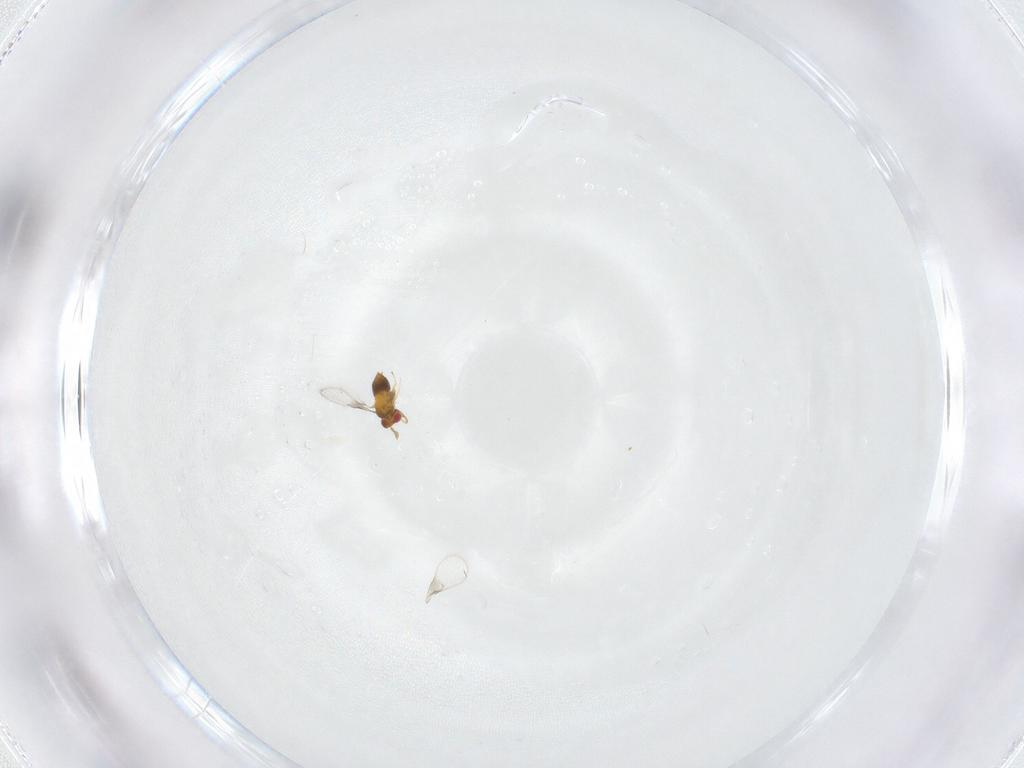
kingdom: Animalia
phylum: Arthropoda
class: Insecta
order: Hymenoptera
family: Trichogrammatidae
